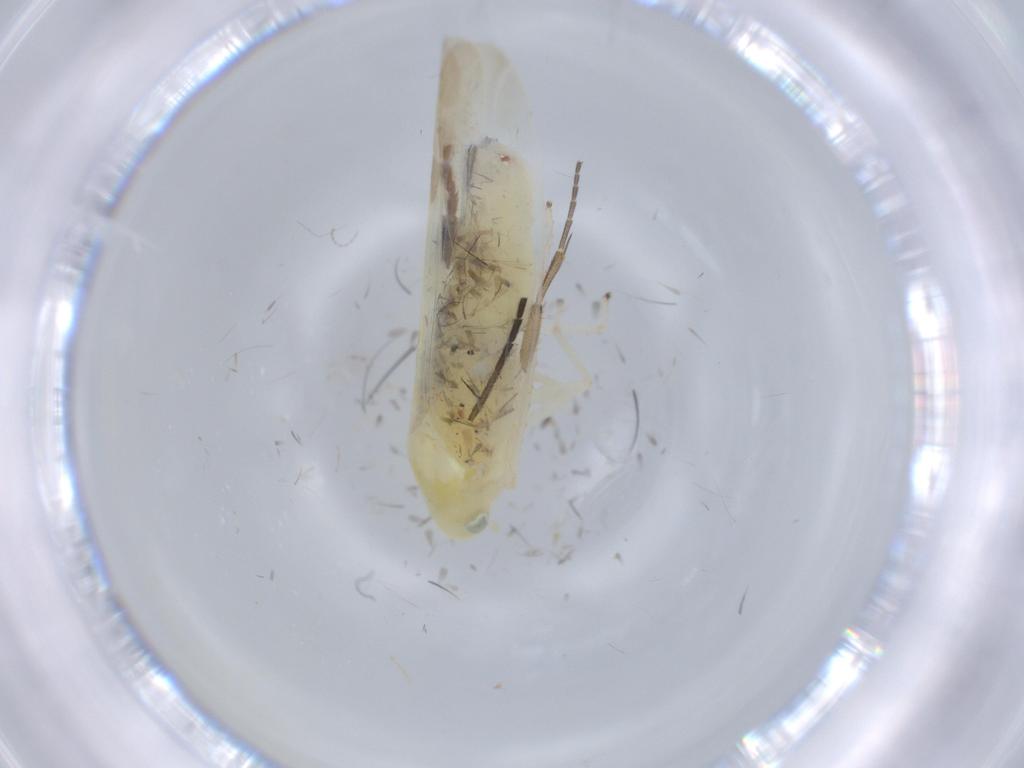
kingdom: Animalia
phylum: Arthropoda
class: Insecta
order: Hemiptera
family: Cicadellidae
